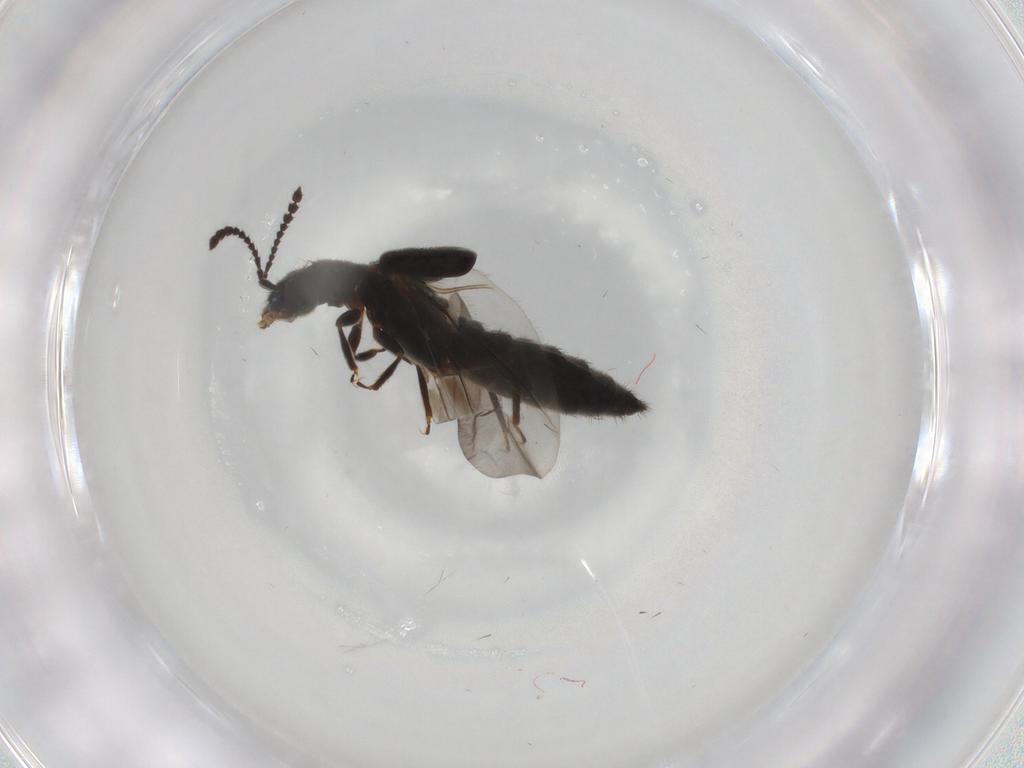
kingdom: Animalia
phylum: Arthropoda
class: Insecta
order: Coleoptera
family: Staphylinidae
